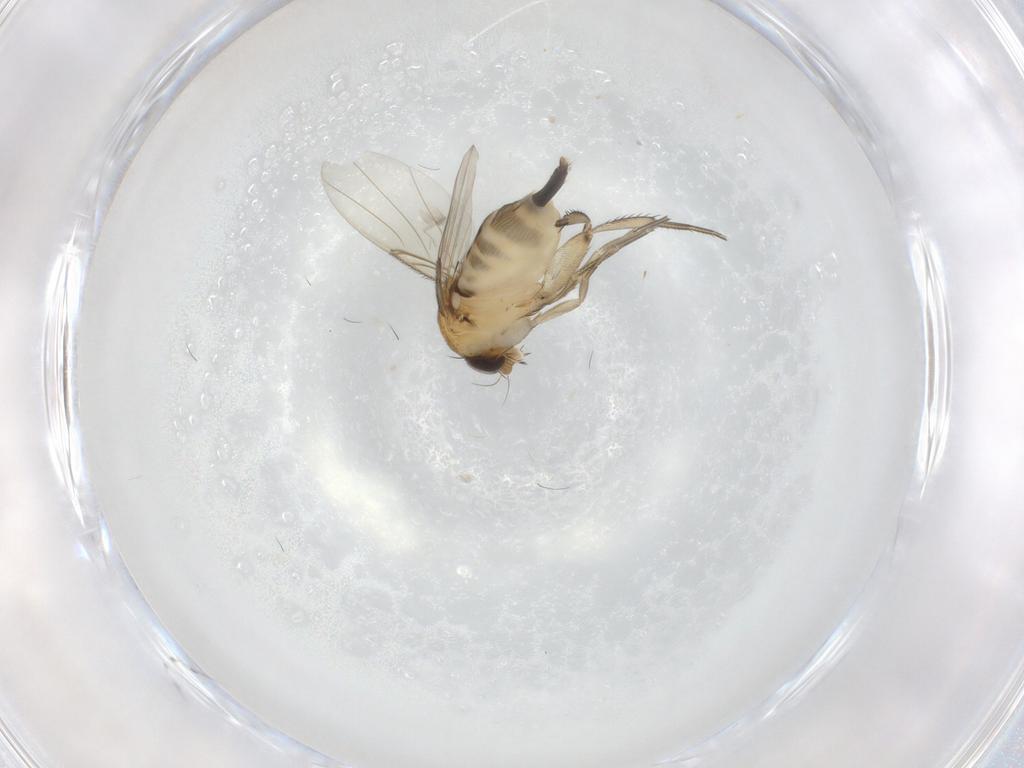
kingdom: Animalia
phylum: Arthropoda
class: Insecta
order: Diptera
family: Phoridae
